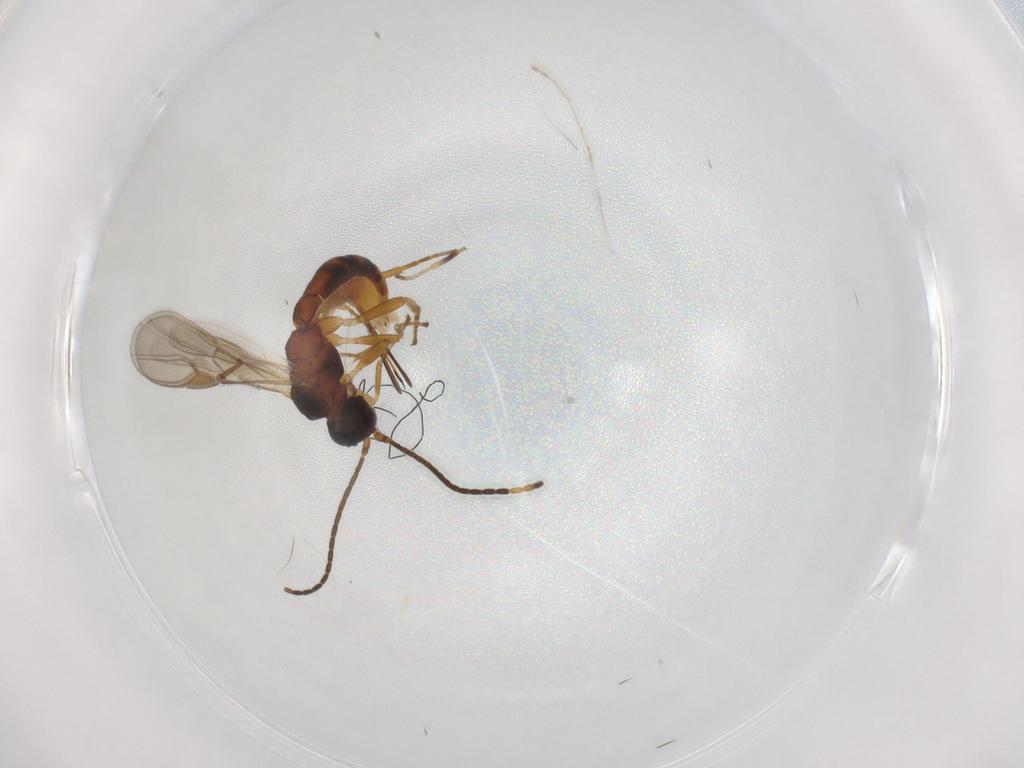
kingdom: Animalia
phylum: Arthropoda
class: Insecta
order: Hymenoptera
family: Braconidae
